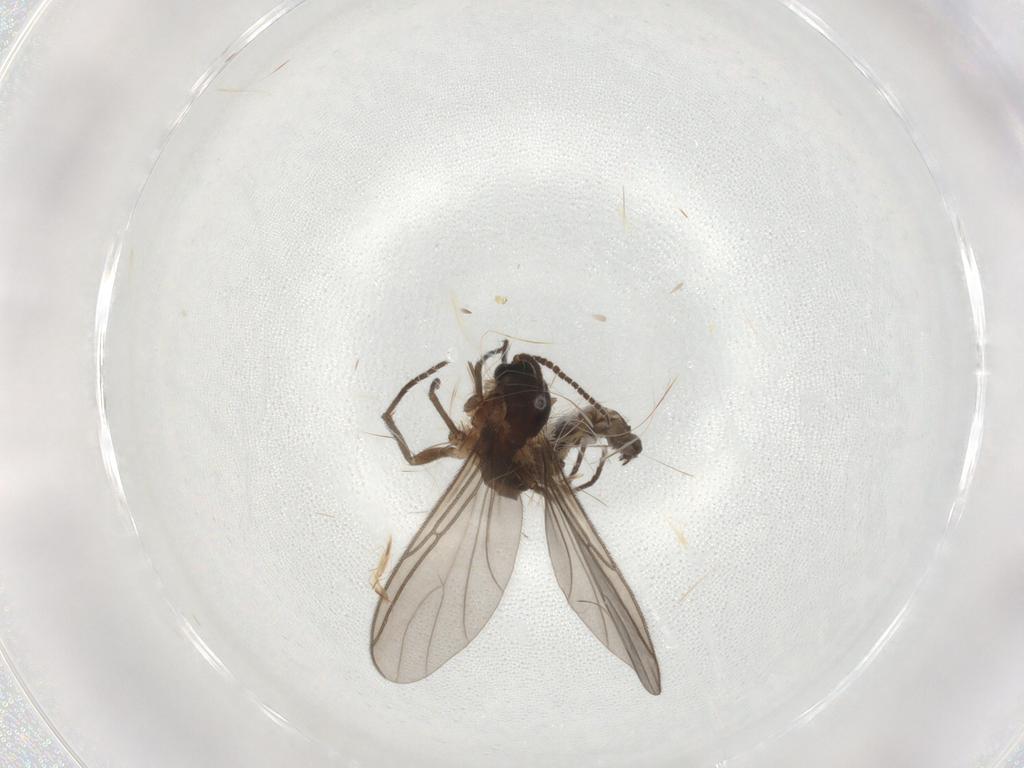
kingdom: Animalia
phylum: Arthropoda
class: Insecta
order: Diptera
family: Sciaridae
